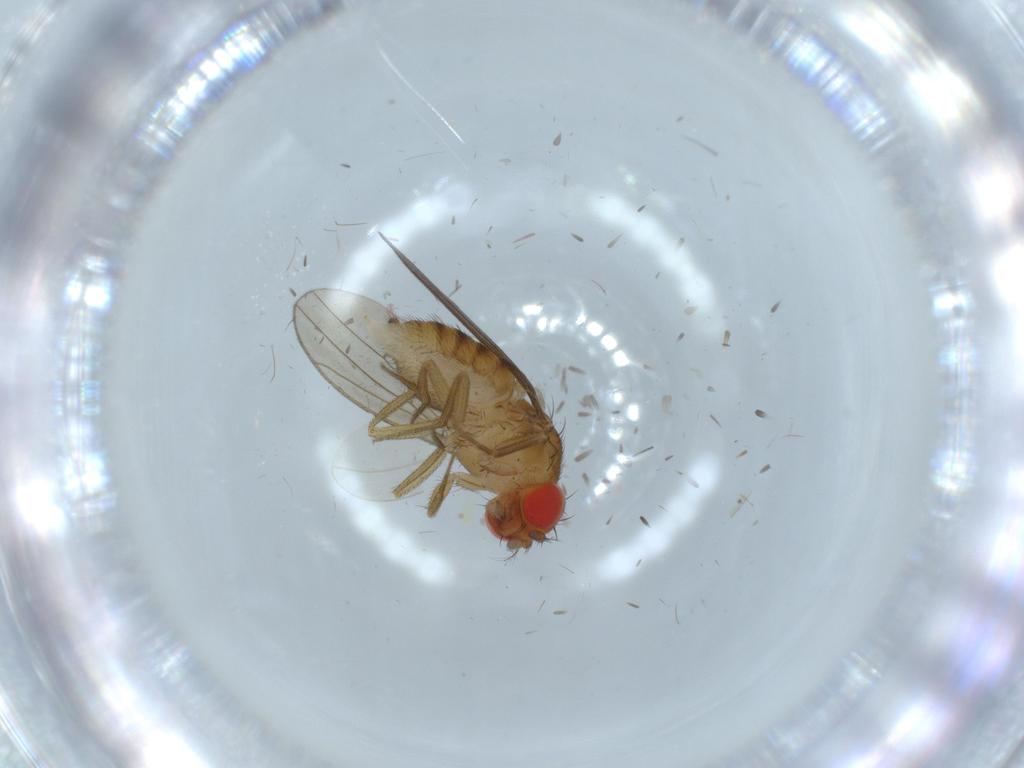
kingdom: Animalia
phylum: Arthropoda
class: Insecta
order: Diptera
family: Drosophilidae
